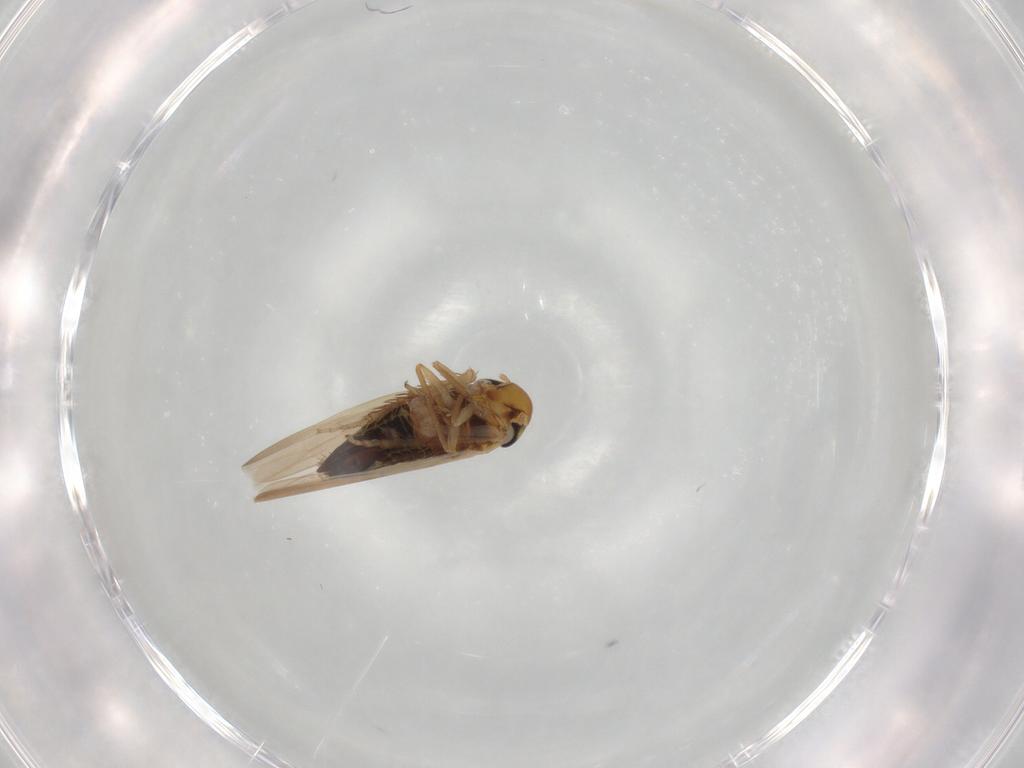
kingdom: Animalia
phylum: Arthropoda
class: Insecta
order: Hemiptera
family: Cicadellidae
